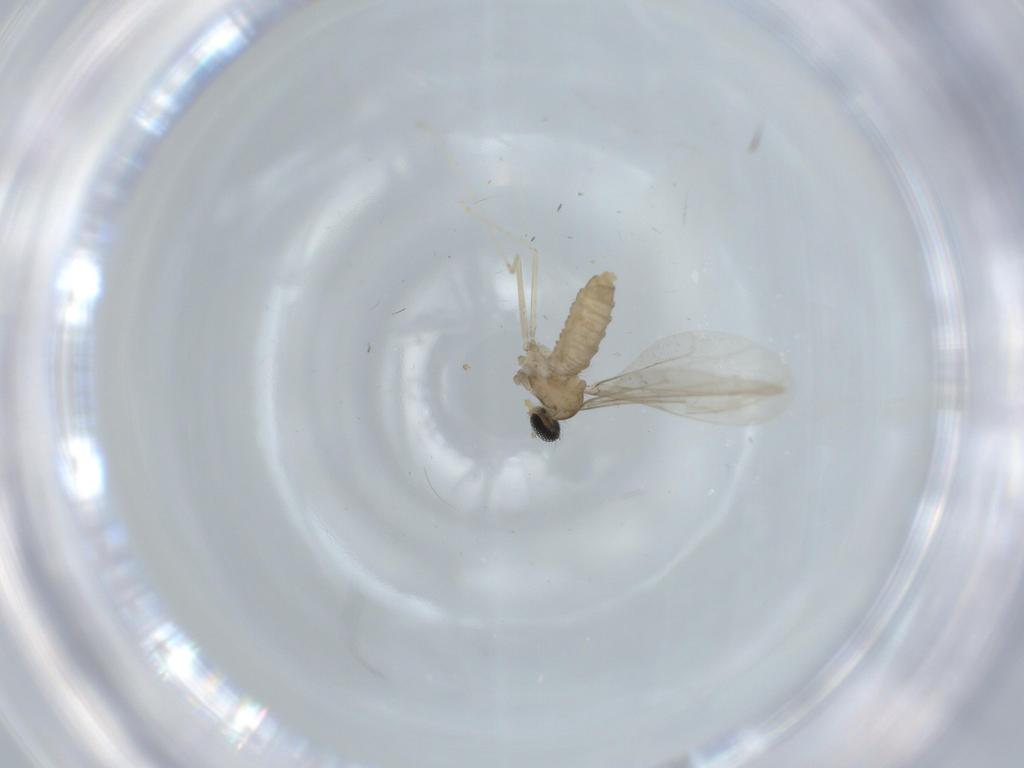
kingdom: Animalia
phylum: Arthropoda
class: Insecta
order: Diptera
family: Cecidomyiidae
